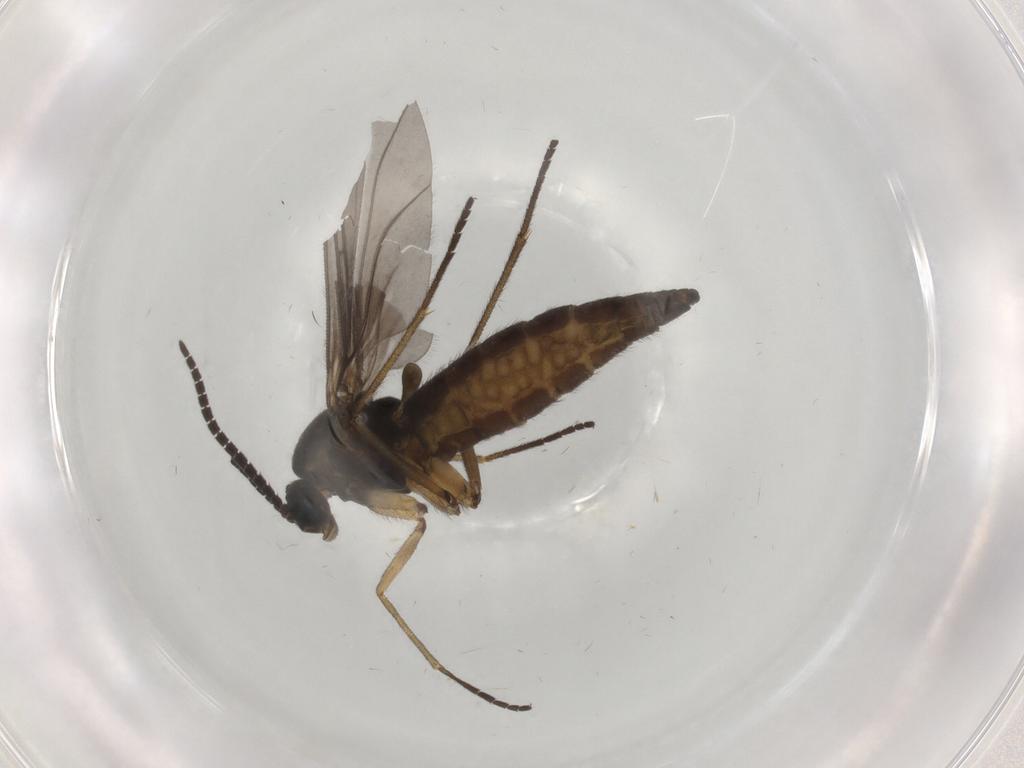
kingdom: Animalia
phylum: Arthropoda
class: Insecta
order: Diptera
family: Sciaridae
